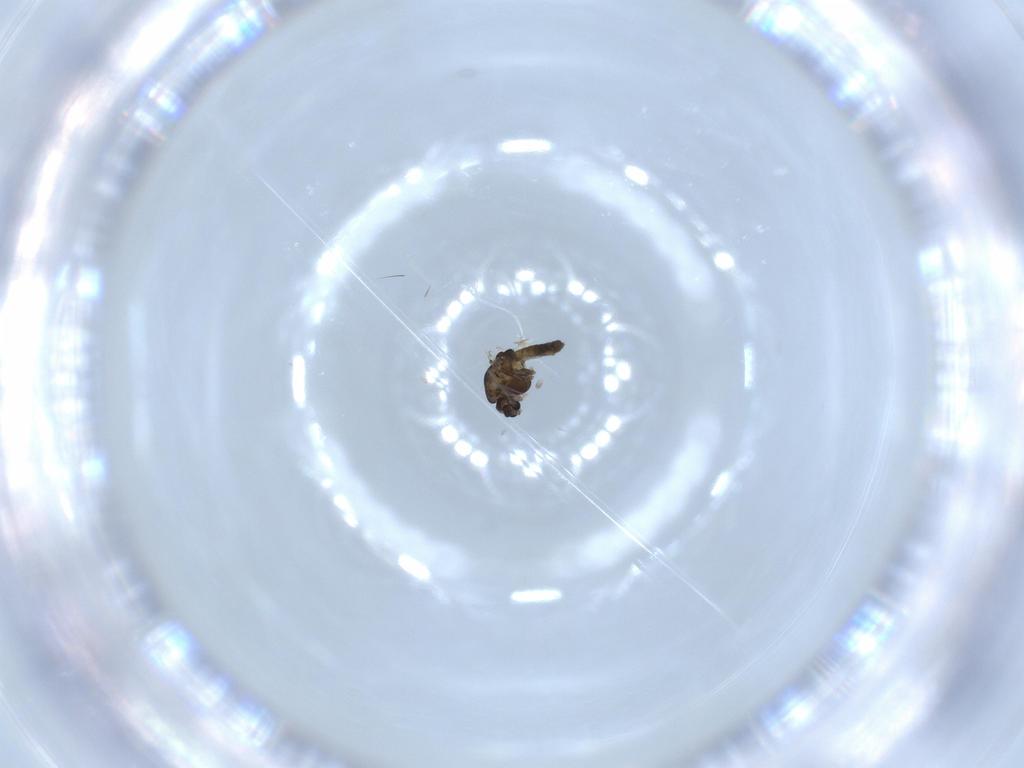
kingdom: Animalia
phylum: Arthropoda
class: Insecta
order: Diptera
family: Chironomidae
